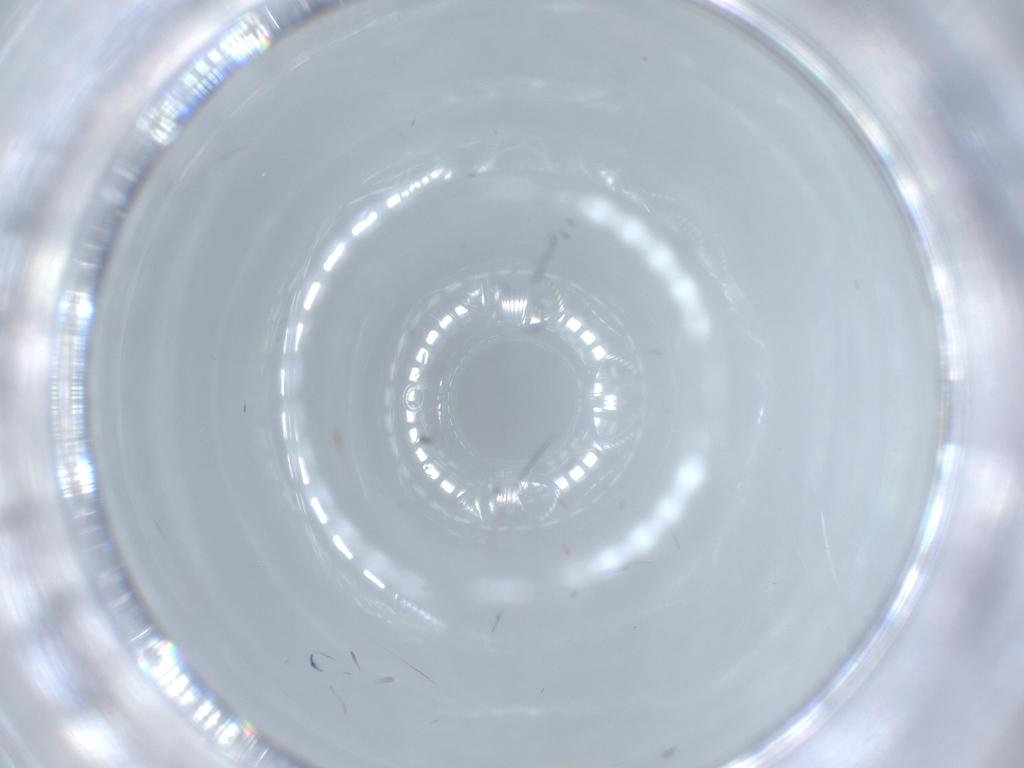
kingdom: Animalia
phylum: Arthropoda
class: Insecta
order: Coleoptera
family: Chrysomelidae
